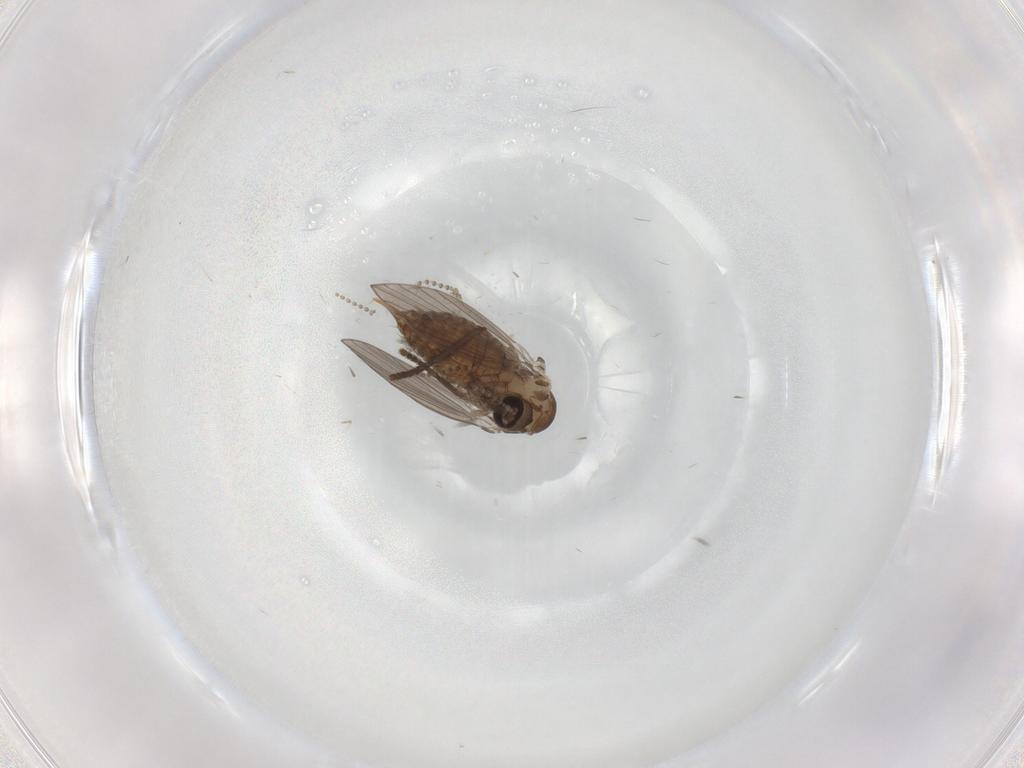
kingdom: Animalia
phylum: Arthropoda
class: Insecta
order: Diptera
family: Psychodidae
